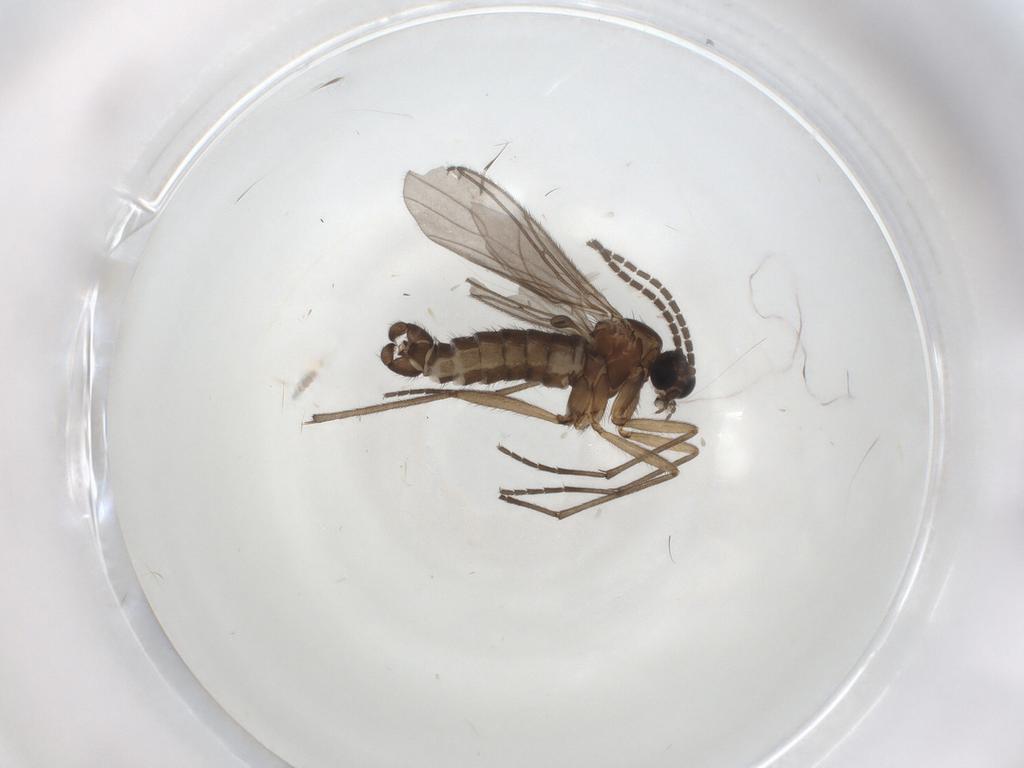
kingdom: Animalia
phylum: Arthropoda
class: Insecta
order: Diptera
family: Sciaridae
